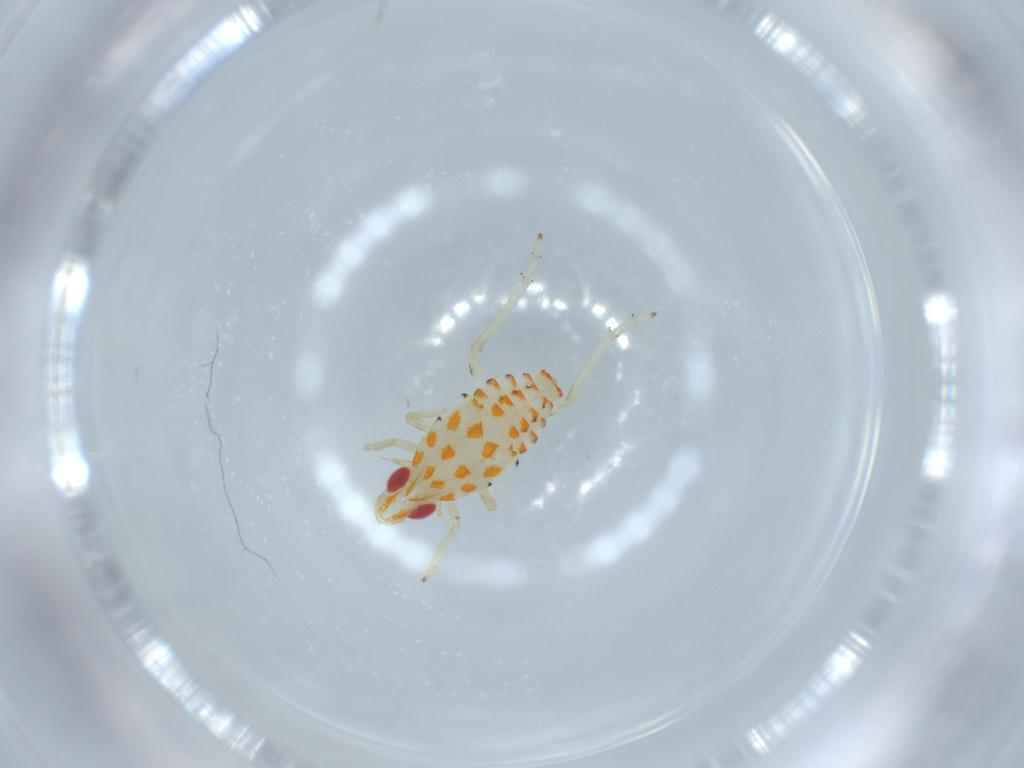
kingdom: Animalia
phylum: Arthropoda
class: Insecta
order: Hemiptera
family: Tropiduchidae
